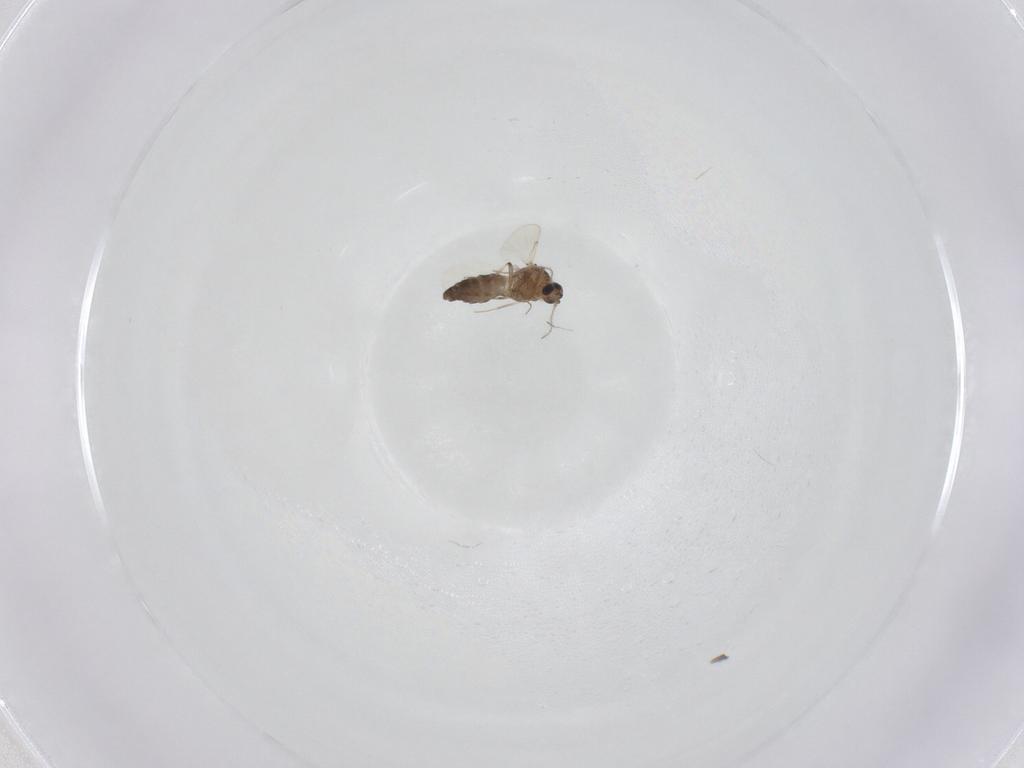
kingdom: Animalia
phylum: Arthropoda
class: Insecta
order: Diptera
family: Ceratopogonidae
